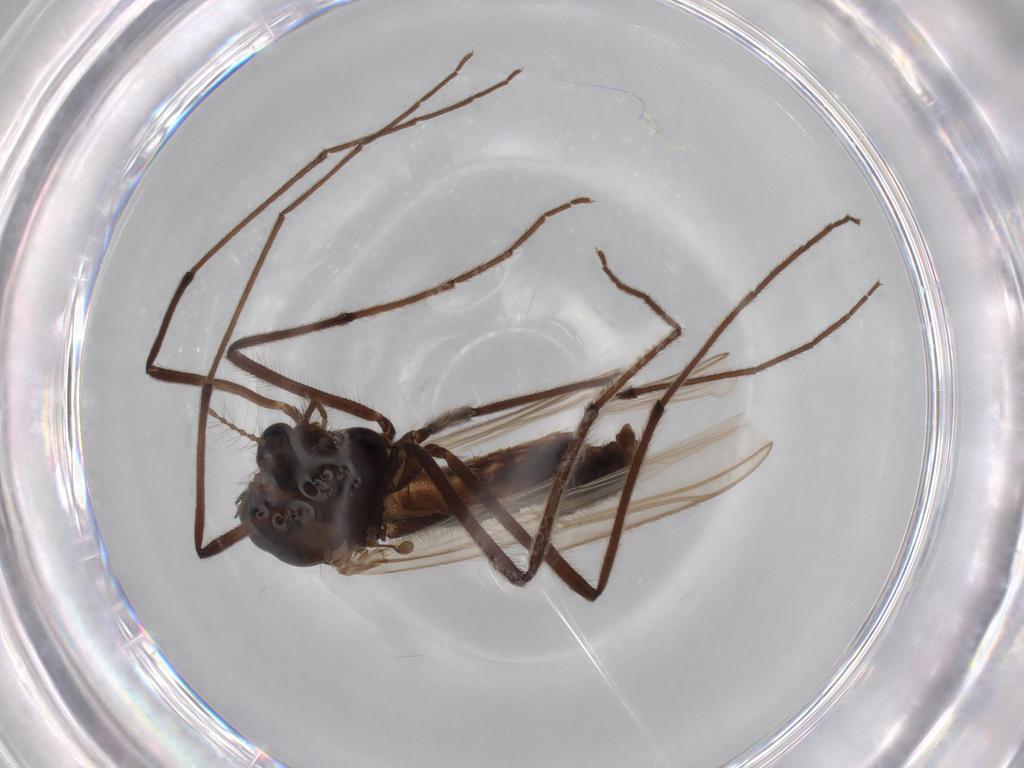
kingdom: Animalia
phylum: Arthropoda
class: Insecta
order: Diptera
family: Chironomidae
